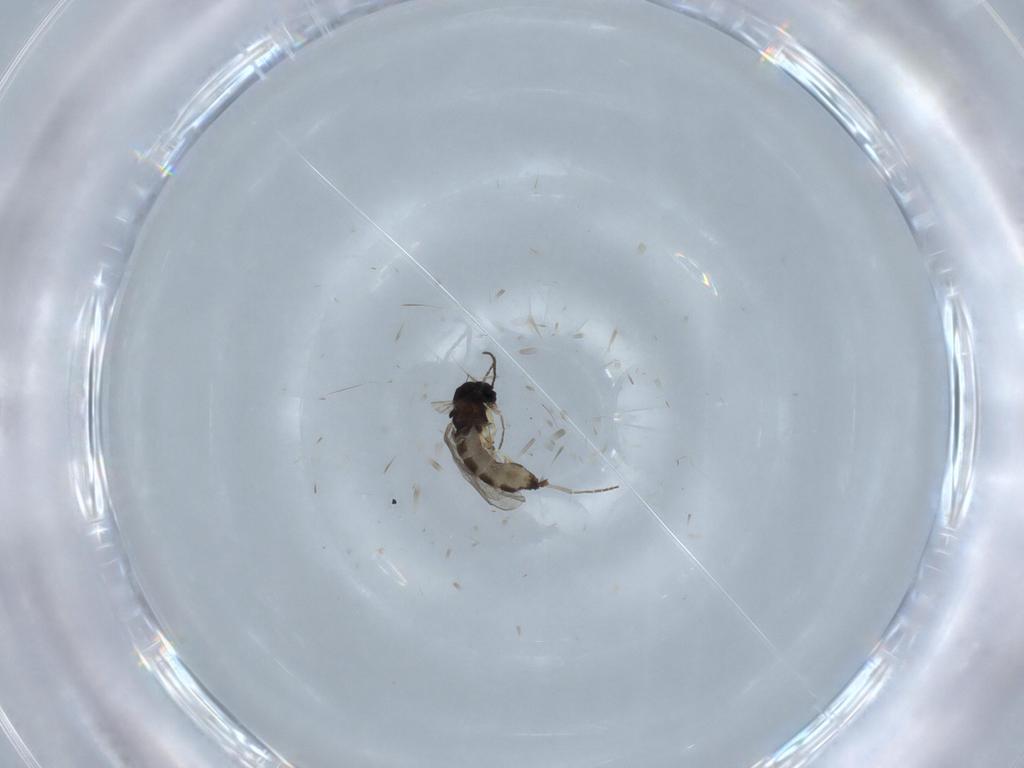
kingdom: Animalia
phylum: Arthropoda
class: Insecta
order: Diptera
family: Sciaridae
